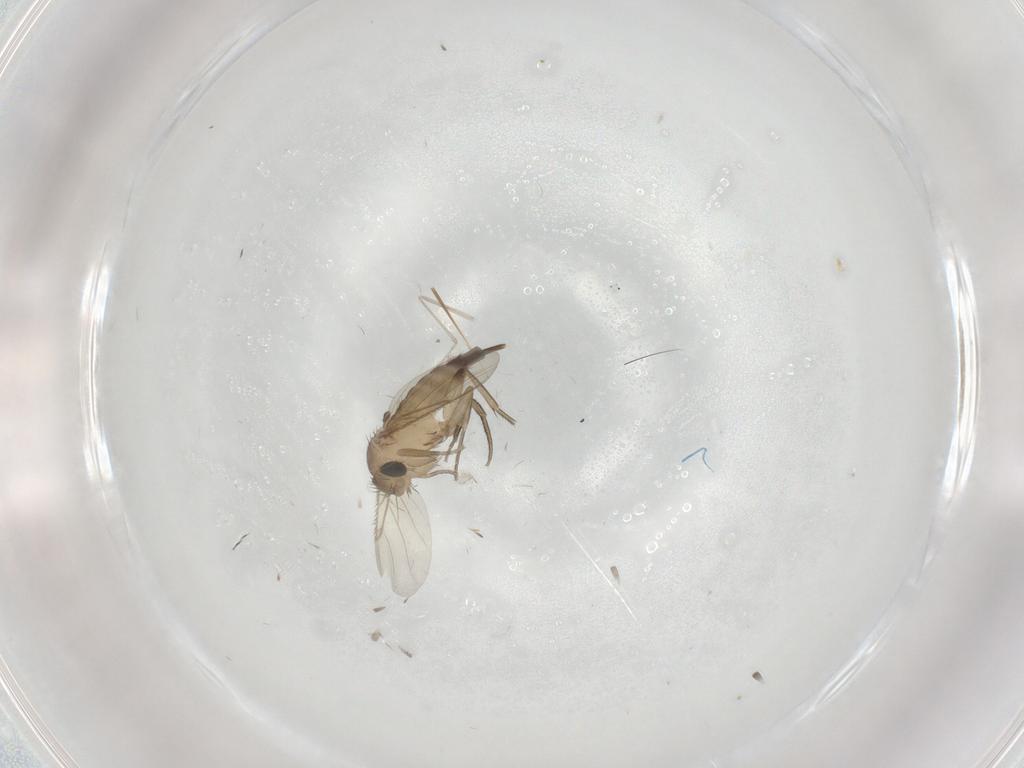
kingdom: Animalia
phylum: Arthropoda
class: Insecta
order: Diptera
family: Cecidomyiidae
